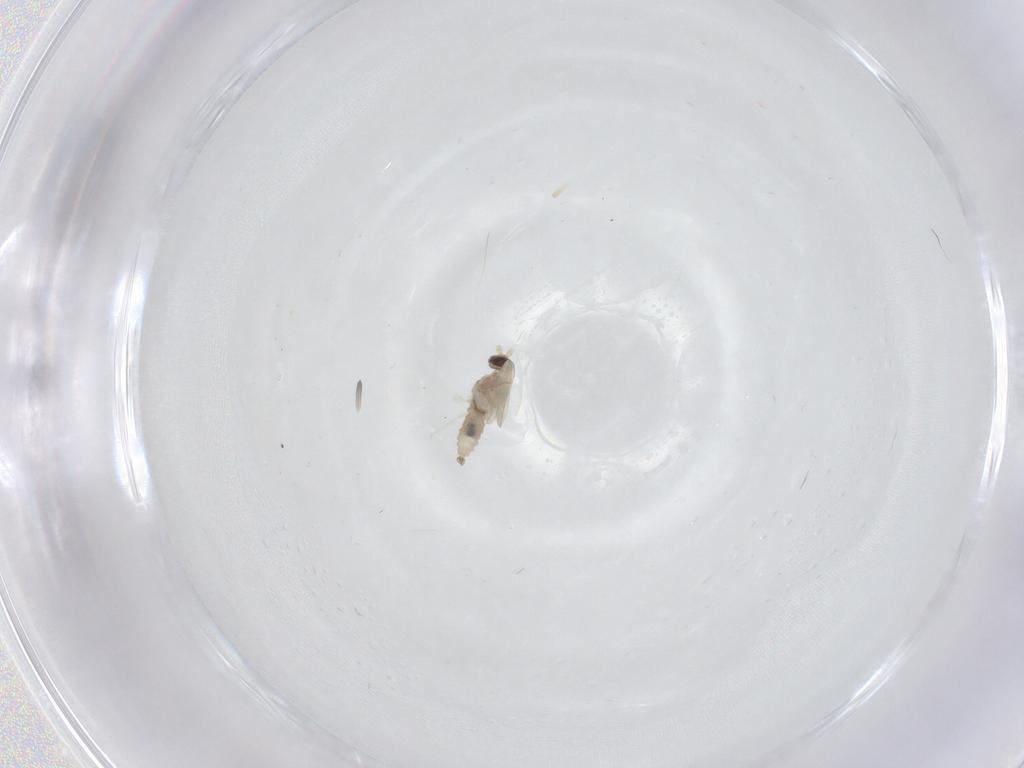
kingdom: Animalia
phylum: Arthropoda
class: Insecta
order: Diptera
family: Cecidomyiidae
